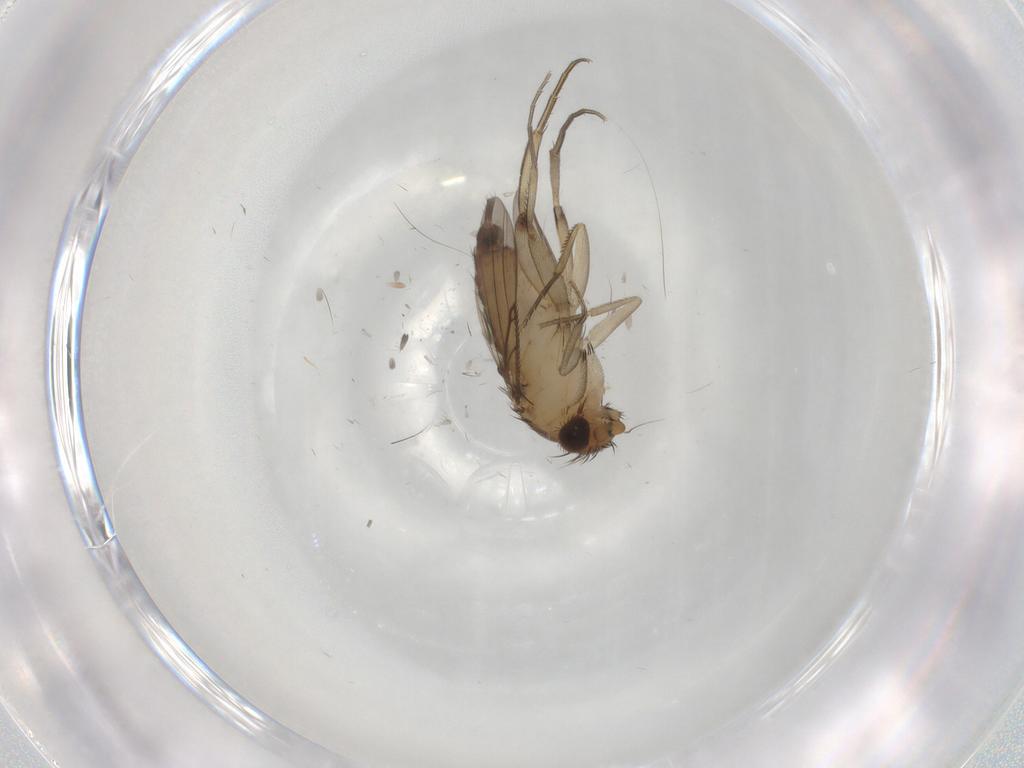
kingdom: Animalia
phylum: Arthropoda
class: Insecta
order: Diptera
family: Phoridae
